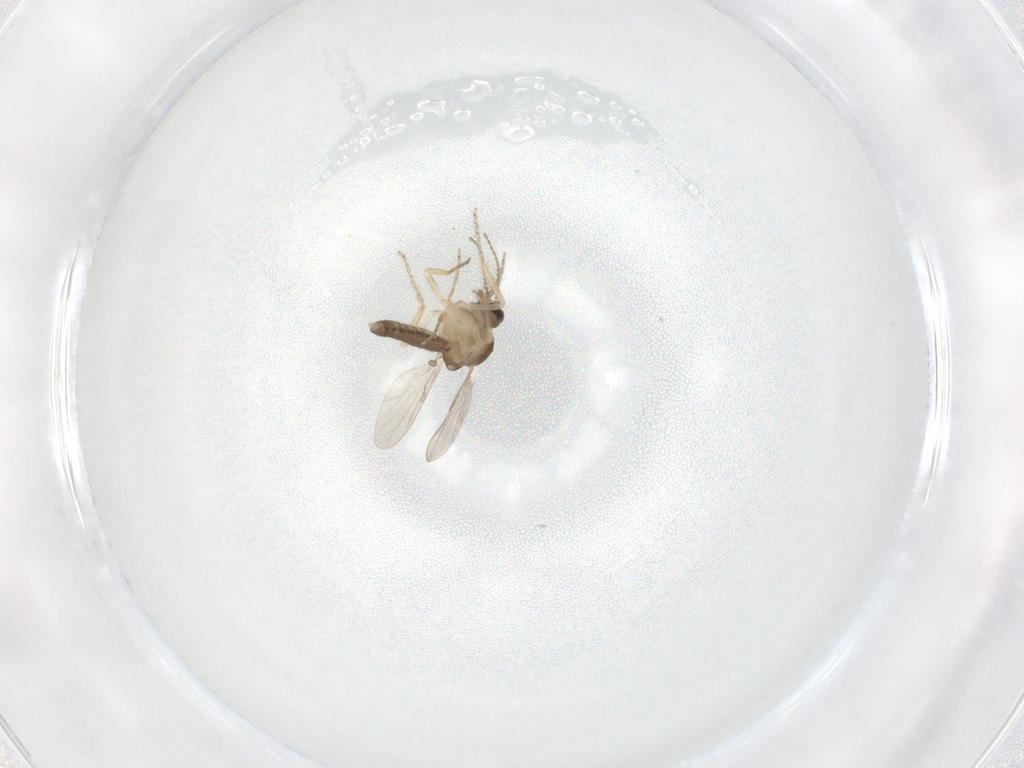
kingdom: Animalia
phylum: Arthropoda
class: Insecta
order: Diptera
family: Ceratopogonidae
